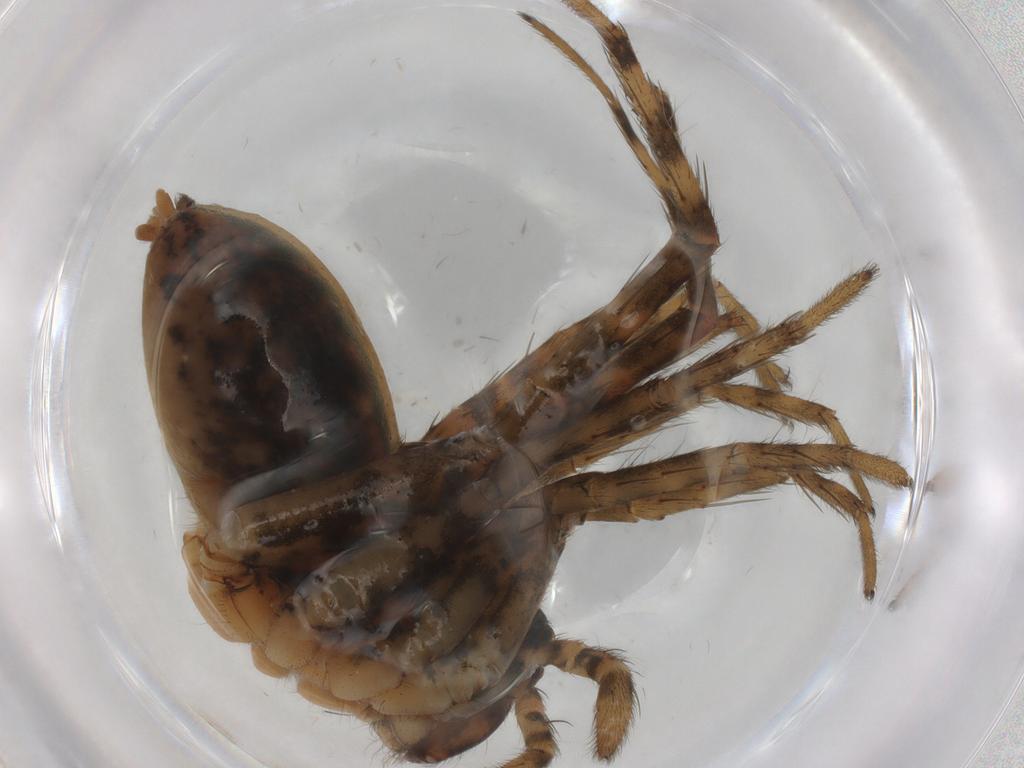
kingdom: Animalia
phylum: Arthropoda
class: Arachnida
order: Araneae
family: Lycosidae
